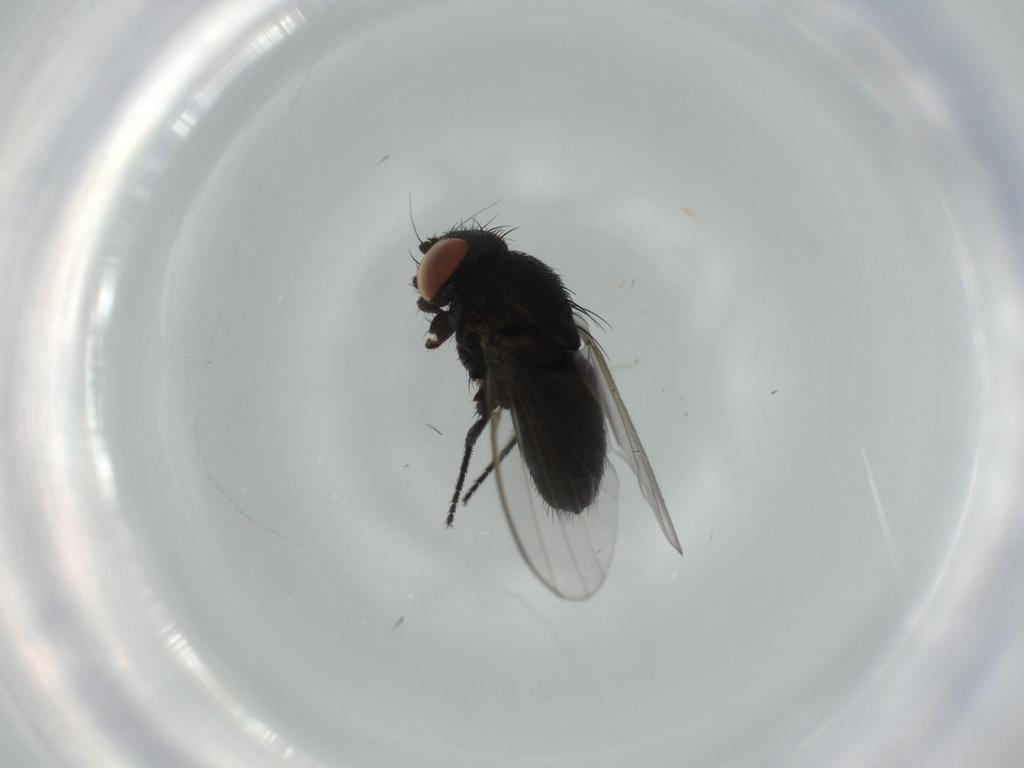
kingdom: Animalia
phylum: Arthropoda
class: Insecta
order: Diptera
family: Milichiidae
